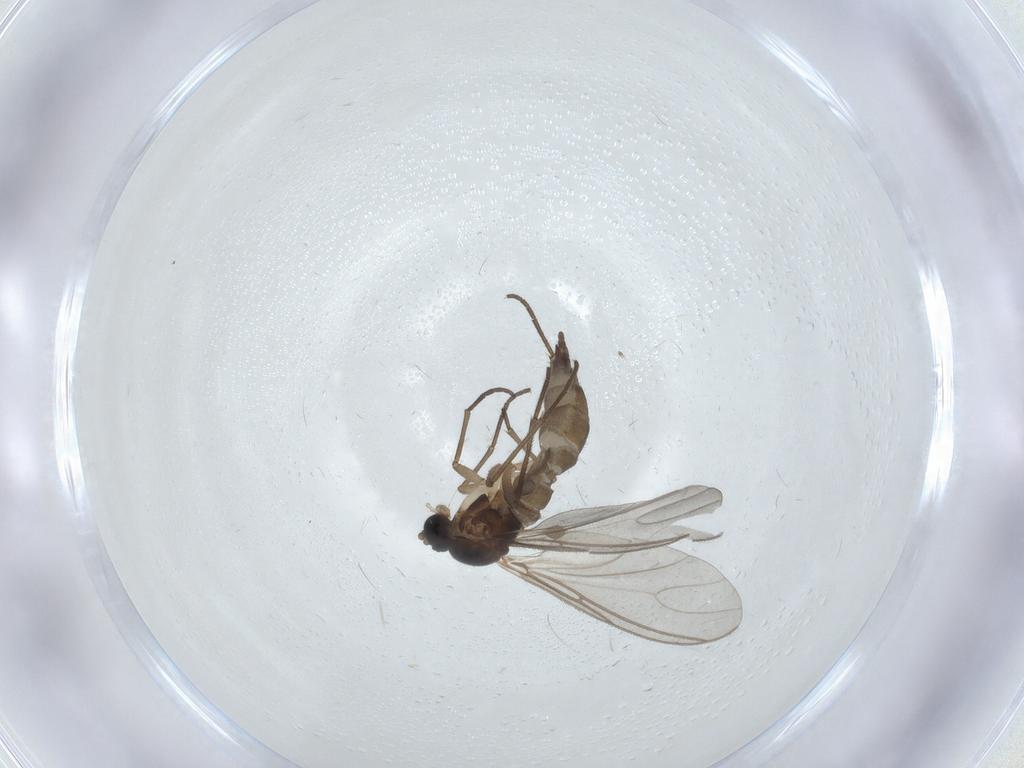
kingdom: Animalia
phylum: Arthropoda
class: Insecta
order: Diptera
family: Sciaridae
